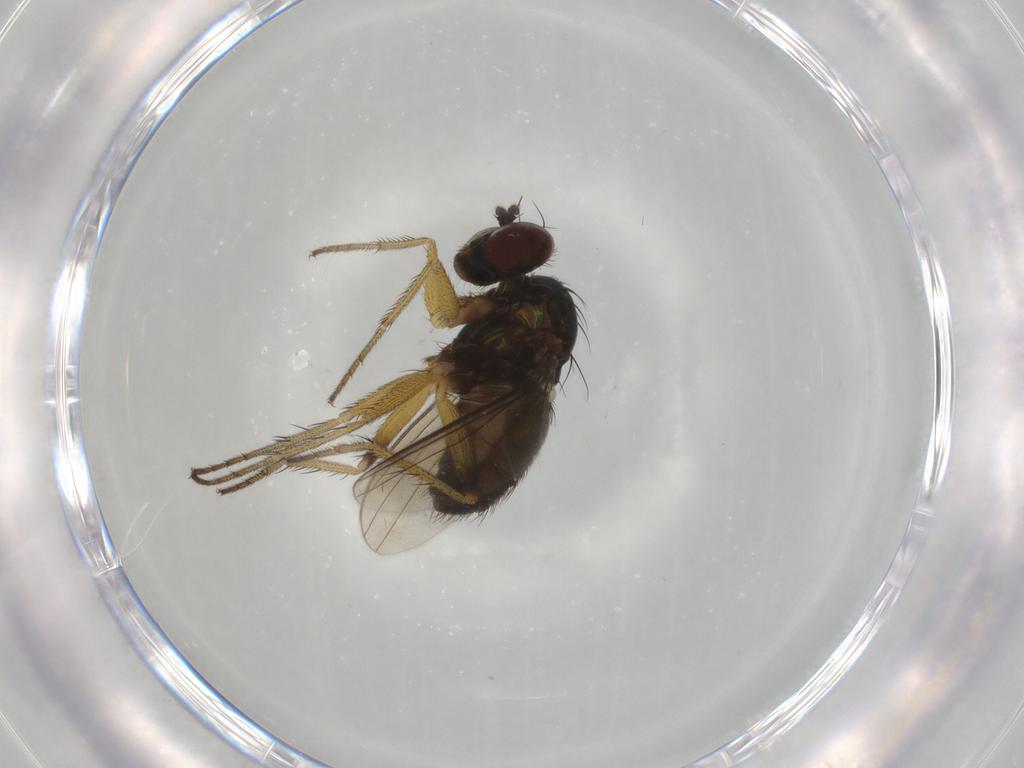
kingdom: Animalia
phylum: Arthropoda
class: Insecta
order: Diptera
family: Dolichopodidae
